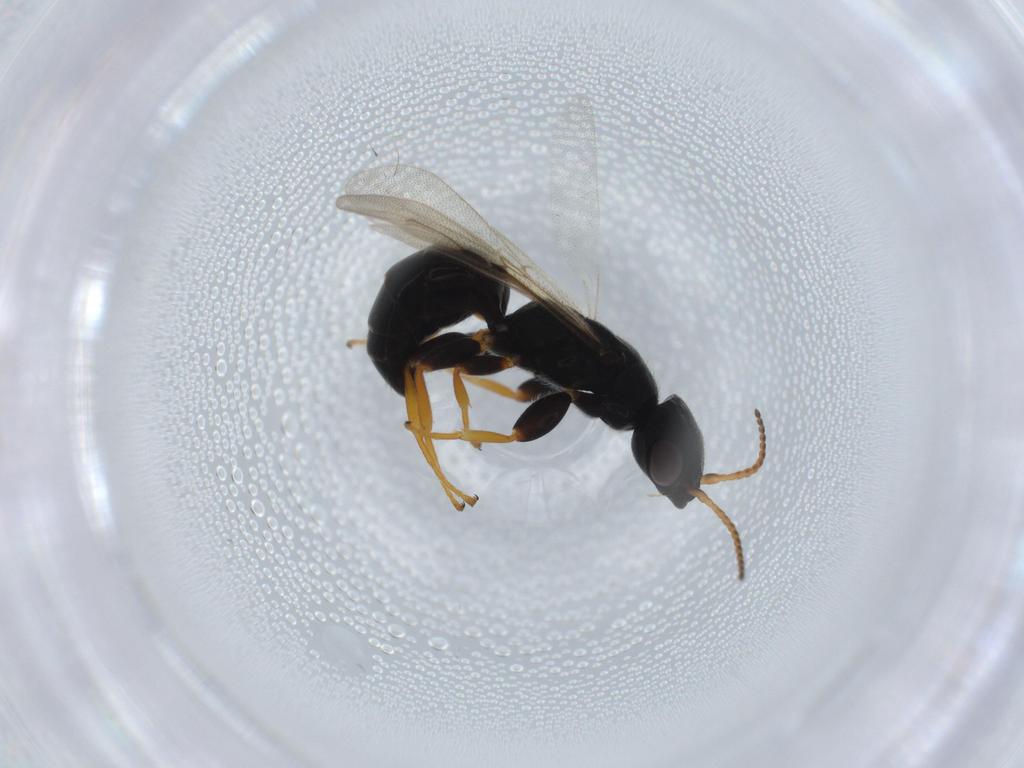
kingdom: Animalia
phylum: Arthropoda
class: Insecta
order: Hymenoptera
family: Bethylidae
